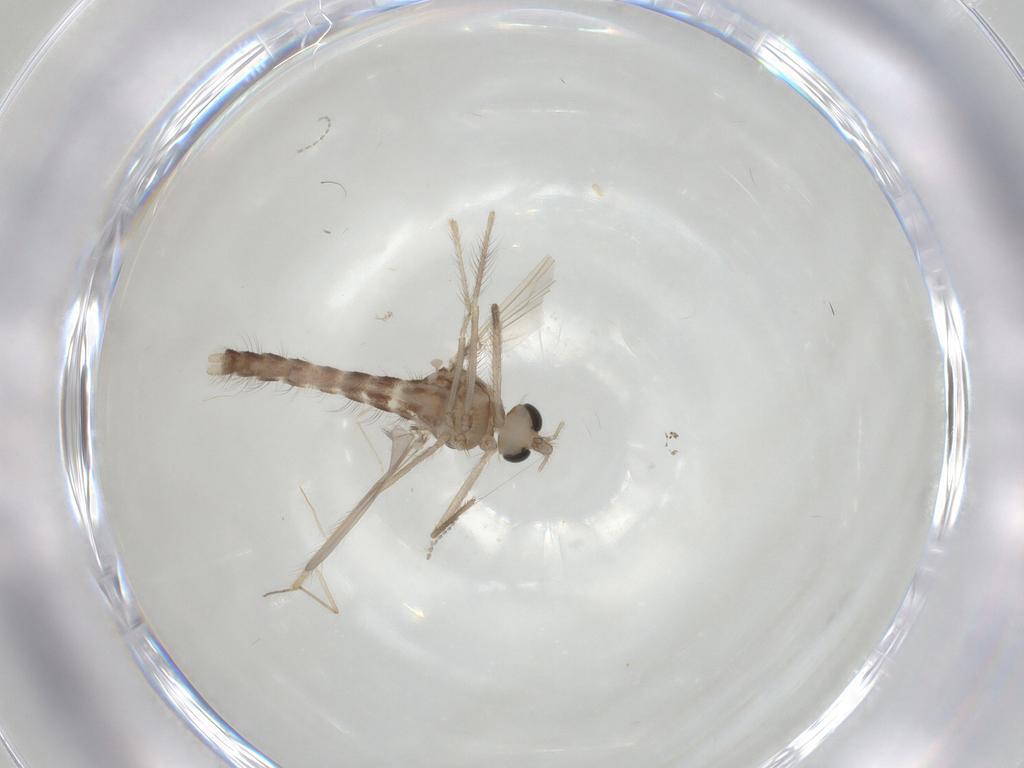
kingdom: Animalia
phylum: Arthropoda
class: Insecta
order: Diptera
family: Chironomidae
